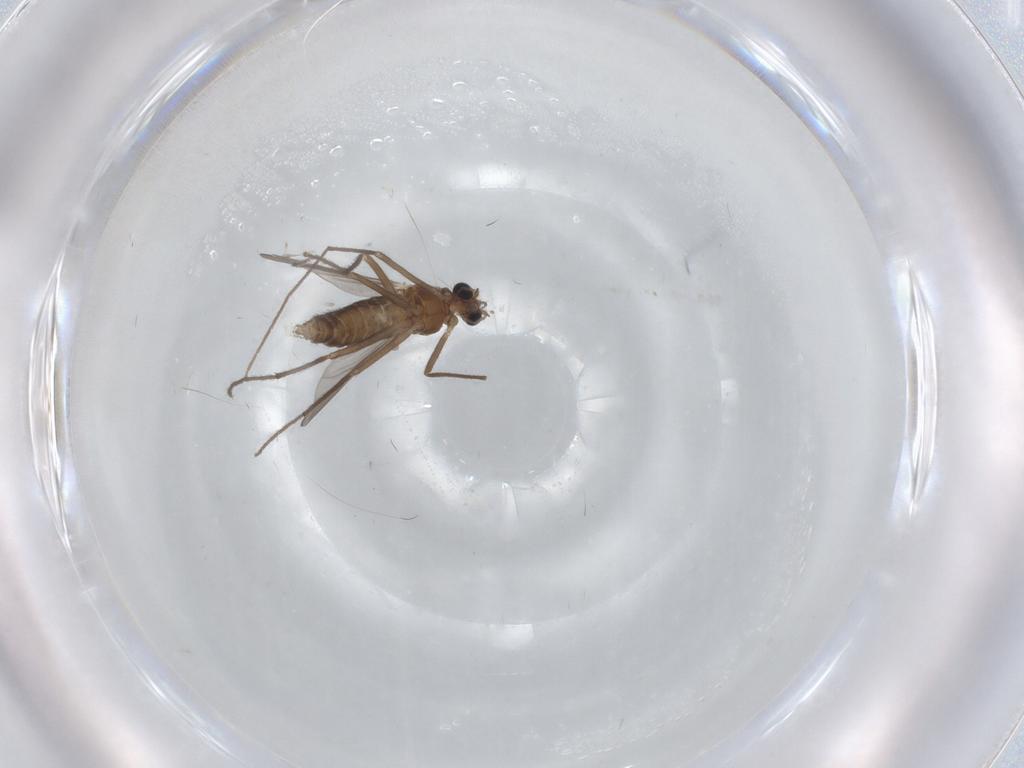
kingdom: Animalia
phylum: Arthropoda
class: Insecta
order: Diptera
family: Chironomidae
